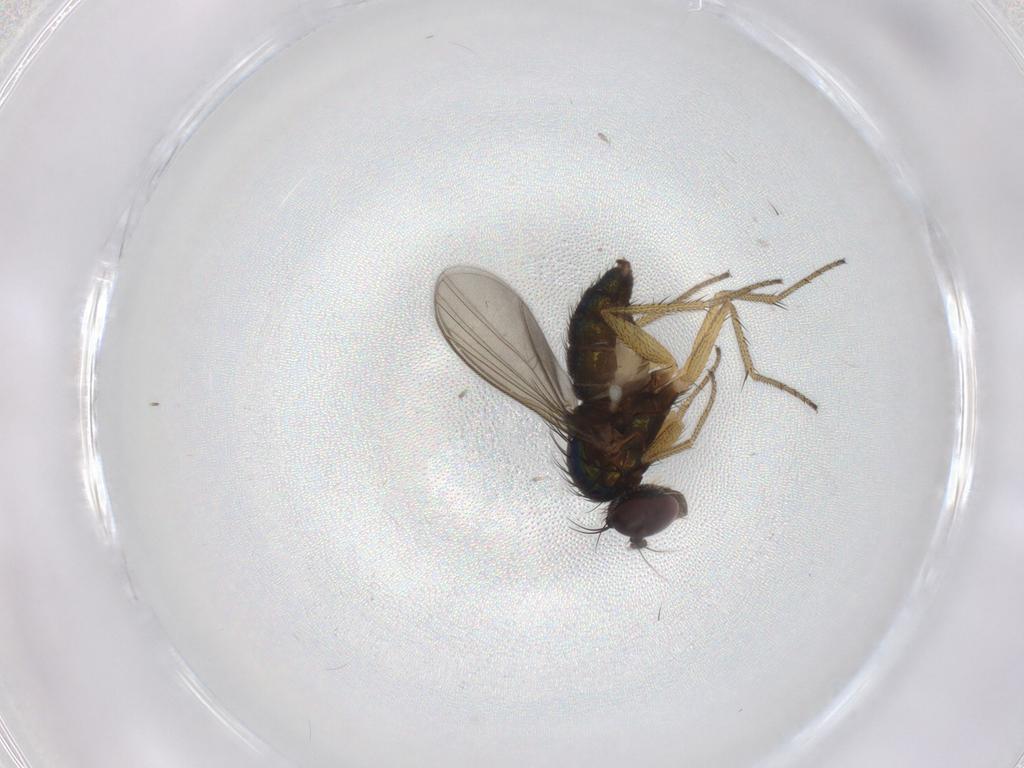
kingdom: Animalia
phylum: Arthropoda
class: Insecta
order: Diptera
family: Dolichopodidae
